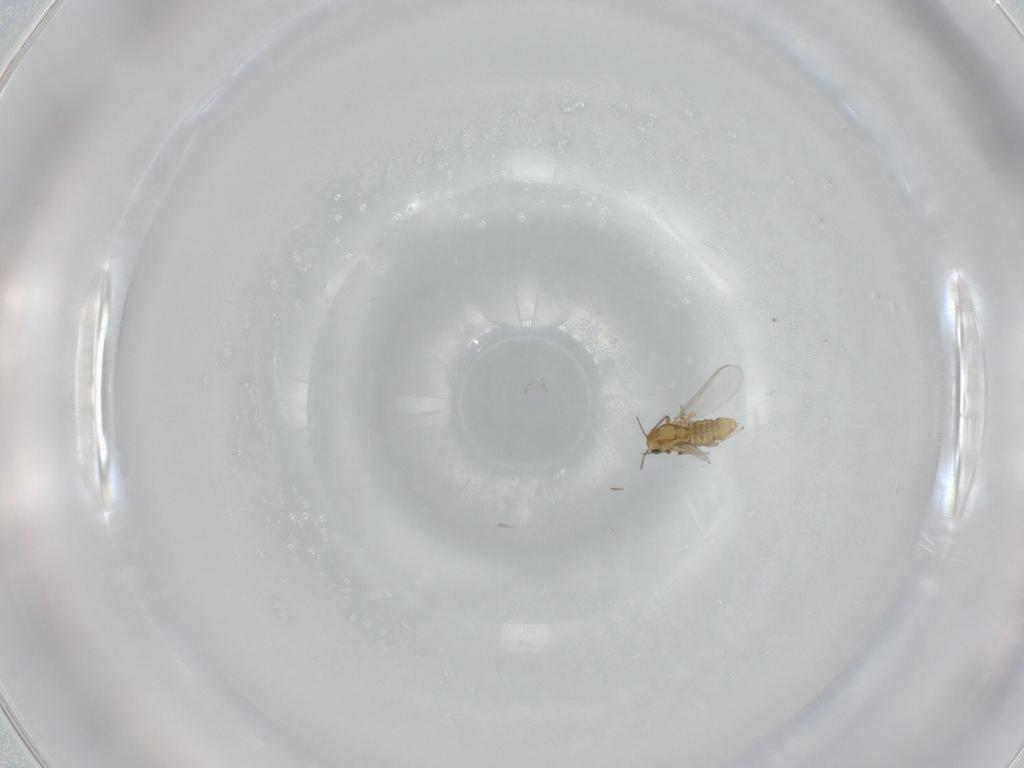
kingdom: Animalia
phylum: Arthropoda
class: Insecta
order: Diptera
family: Chironomidae
